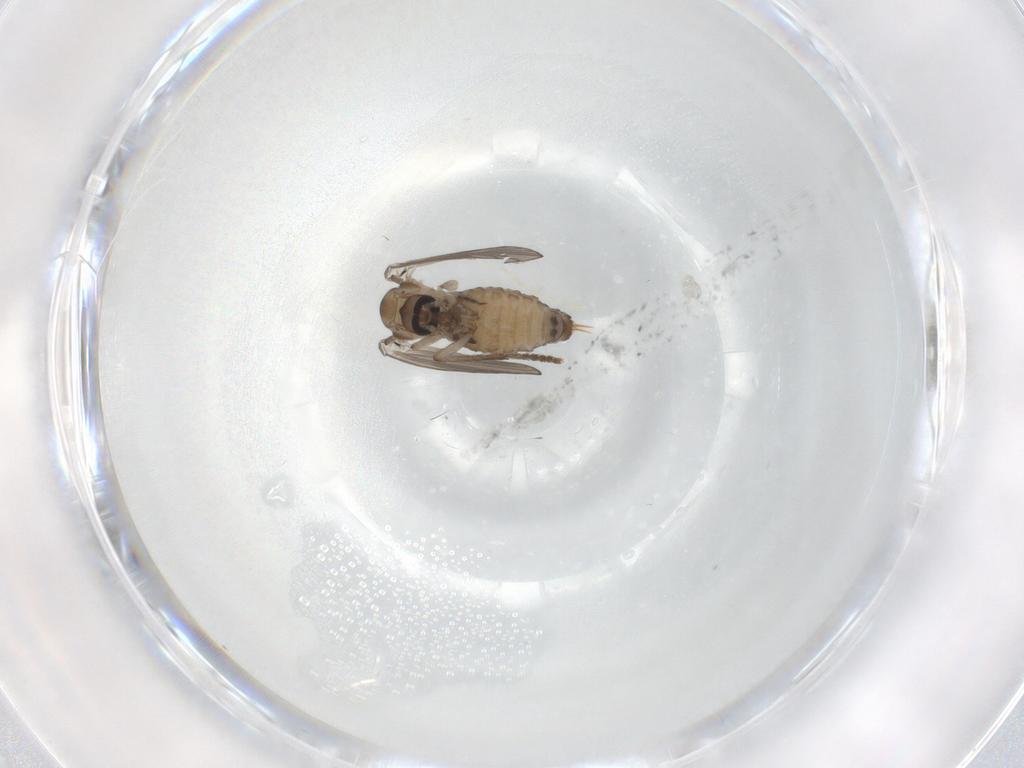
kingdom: Animalia
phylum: Arthropoda
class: Insecta
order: Diptera
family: Psychodidae
